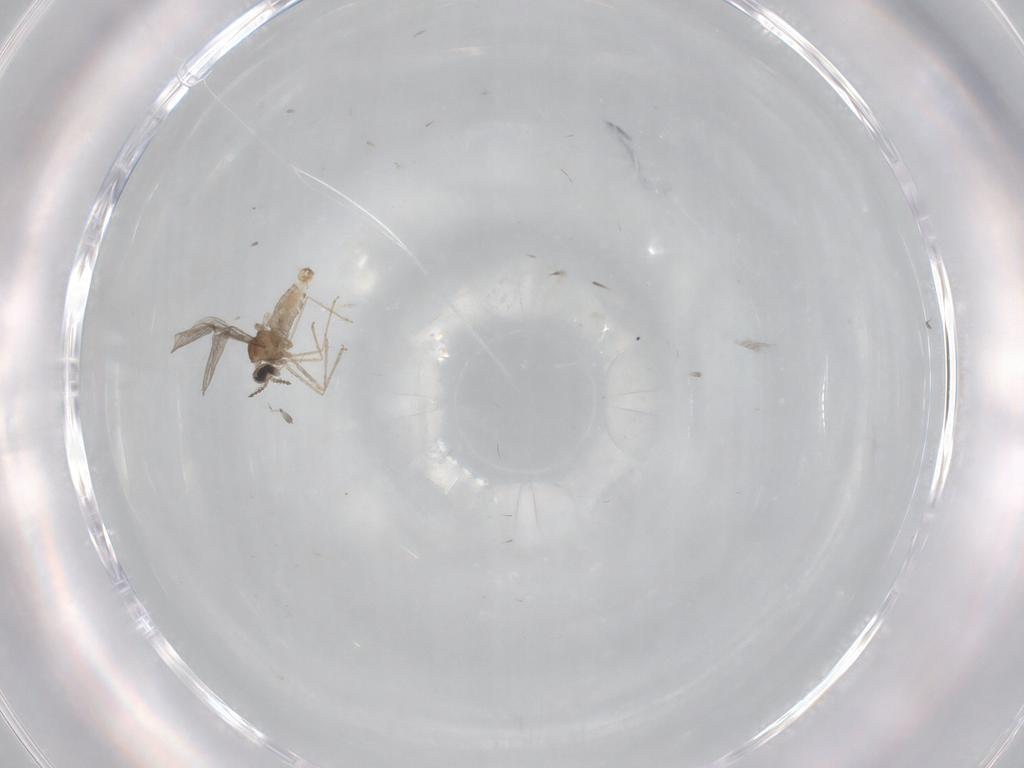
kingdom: Animalia
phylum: Arthropoda
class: Insecta
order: Diptera
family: Cecidomyiidae
